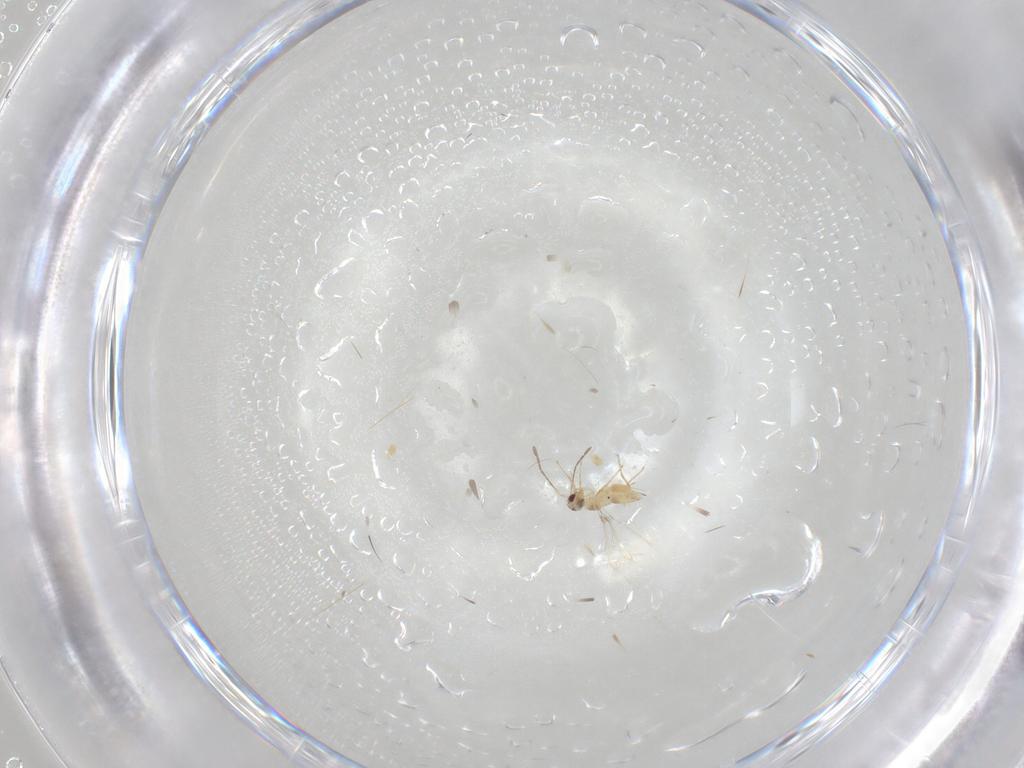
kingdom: Animalia
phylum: Arthropoda
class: Insecta
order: Hymenoptera
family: Mymaridae
